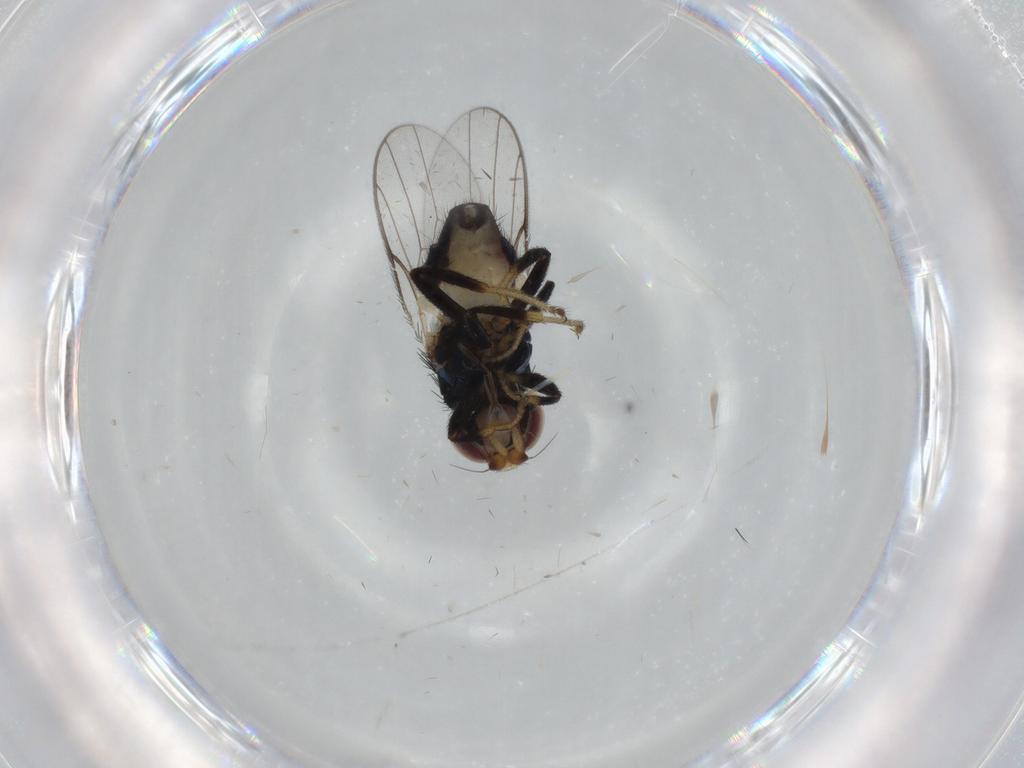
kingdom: Animalia
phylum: Arthropoda
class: Insecta
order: Diptera
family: Chloropidae
